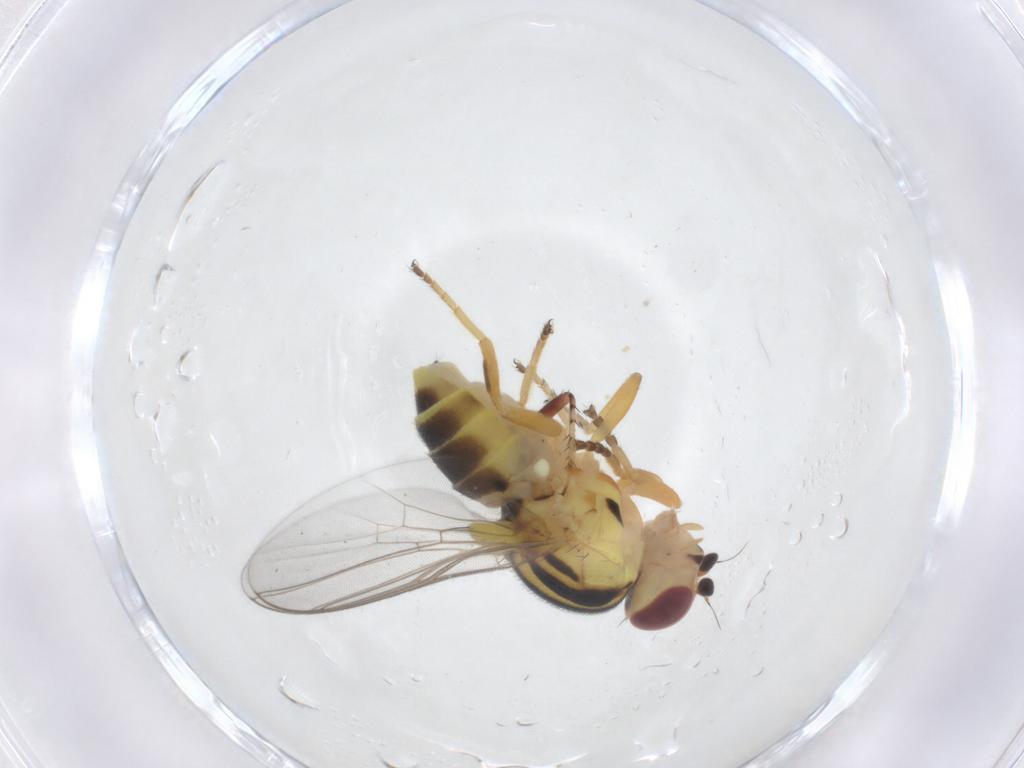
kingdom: Animalia
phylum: Arthropoda
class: Insecta
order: Diptera
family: Chloropidae
